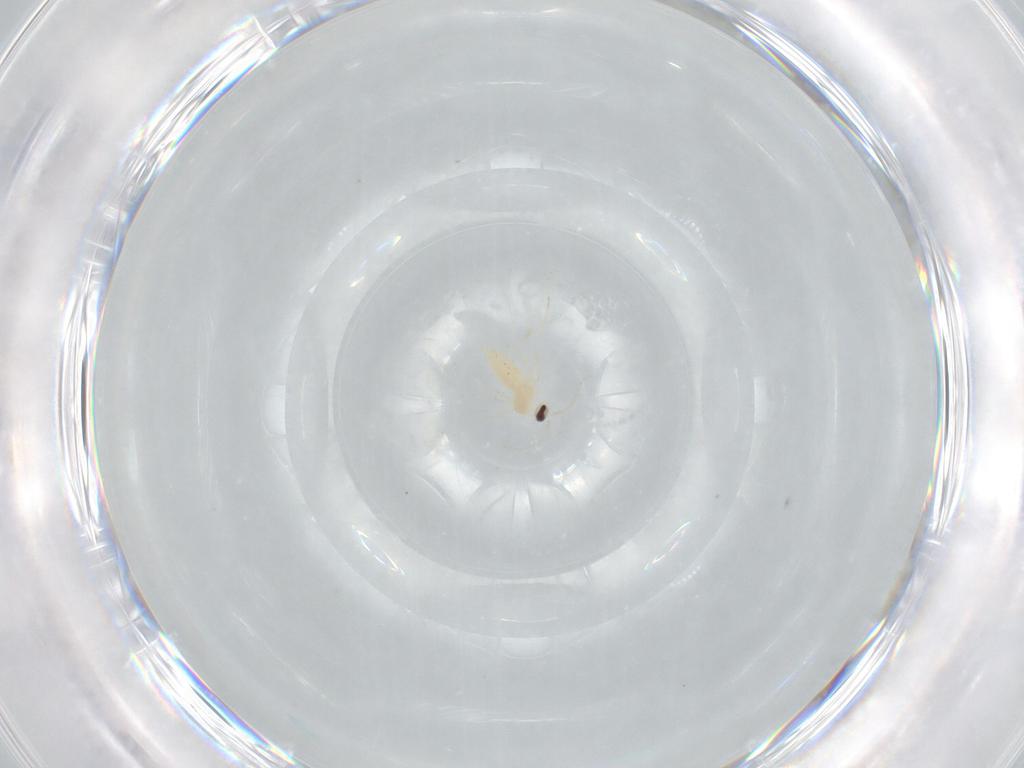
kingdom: Animalia
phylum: Arthropoda
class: Insecta
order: Diptera
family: Cecidomyiidae
